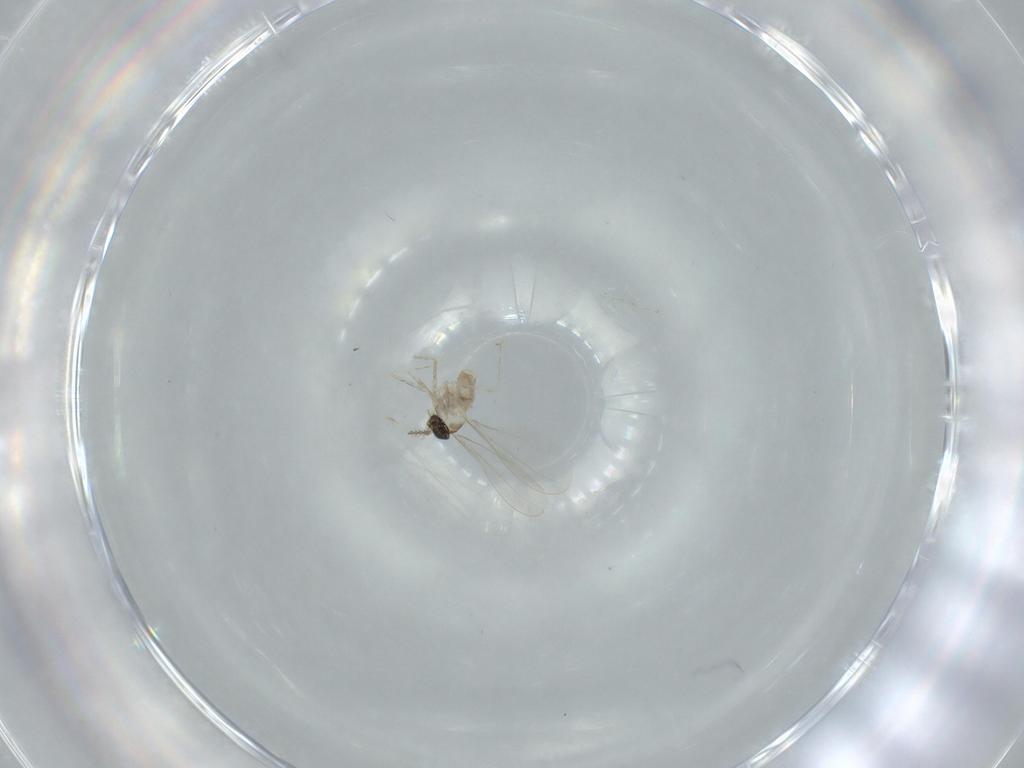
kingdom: Animalia
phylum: Arthropoda
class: Insecta
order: Diptera
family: Cecidomyiidae
